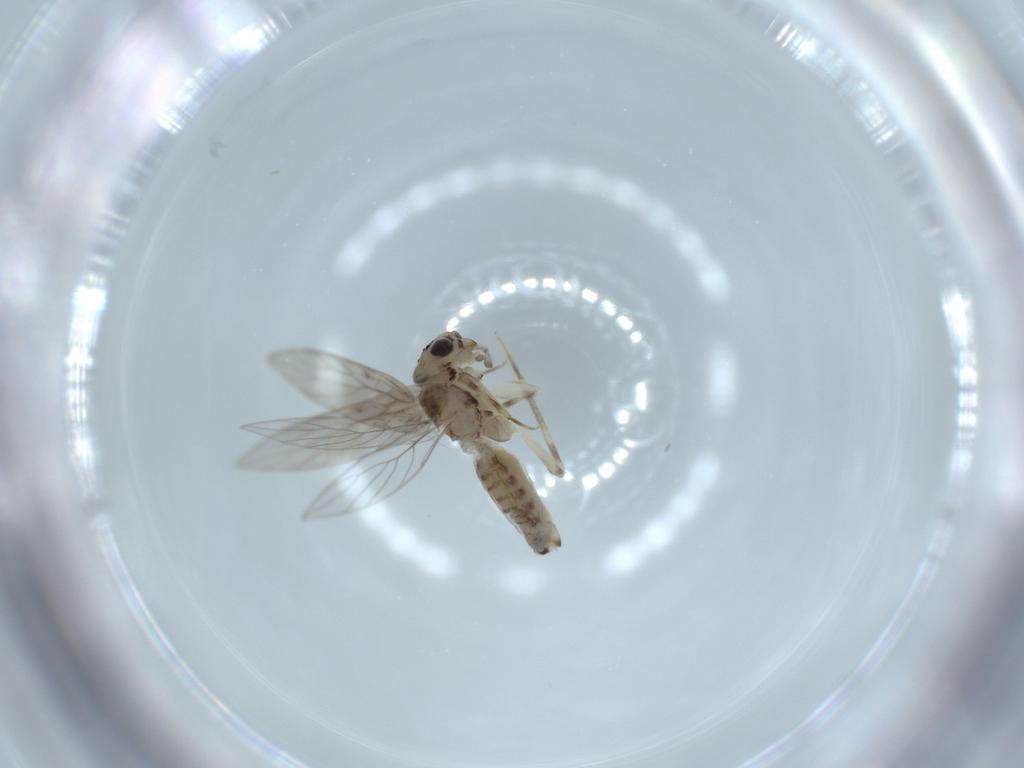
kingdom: Animalia
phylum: Arthropoda
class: Insecta
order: Psocodea
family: Lepidopsocidae
